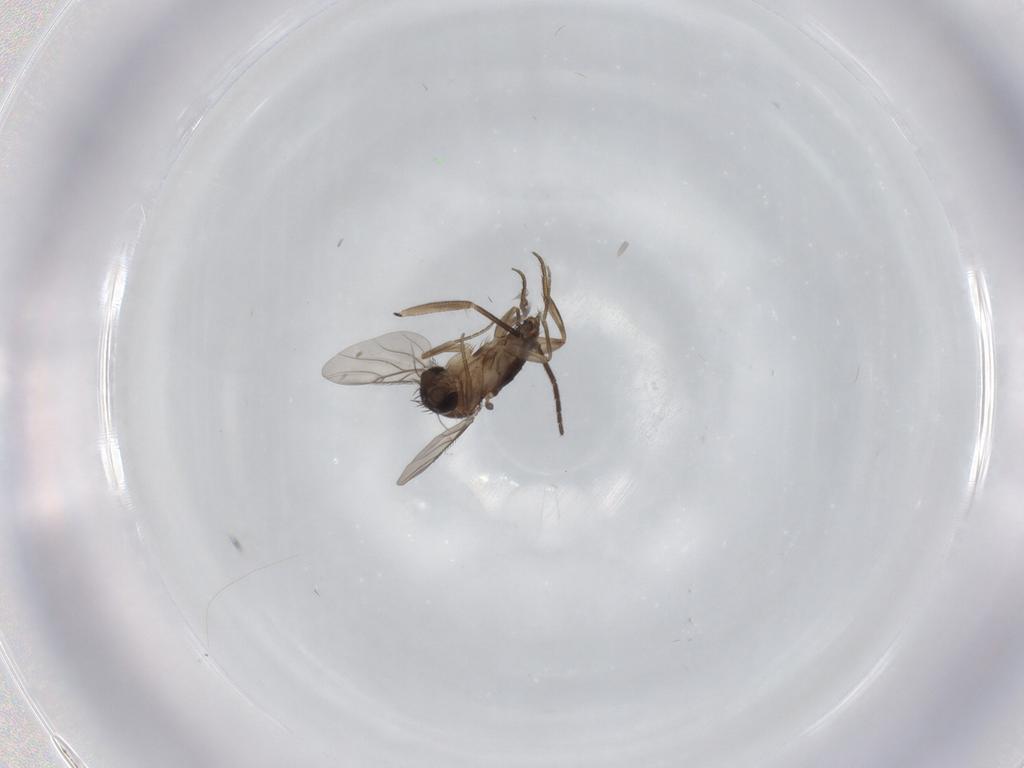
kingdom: Animalia
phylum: Arthropoda
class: Insecta
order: Diptera
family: Phoridae
